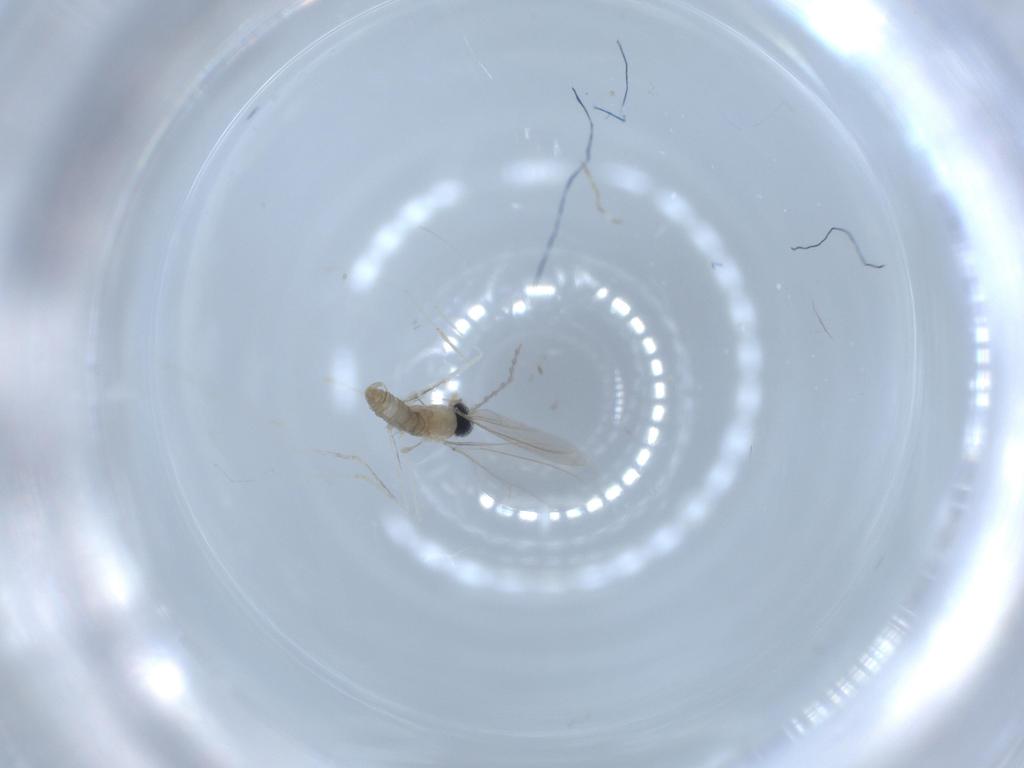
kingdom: Animalia
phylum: Arthropoda
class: Insecta
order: Diptera
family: Cecidomyiidae
